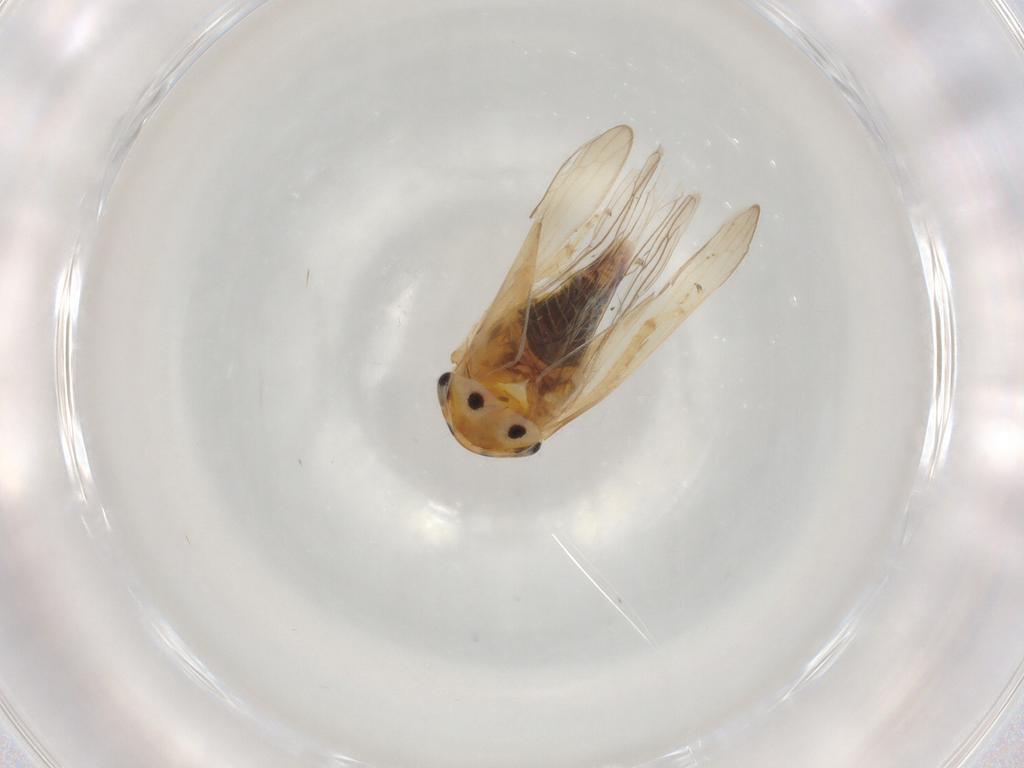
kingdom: Animalia
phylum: Arthropoda
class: Insecta
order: Hemiptera
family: Cicadellidae
